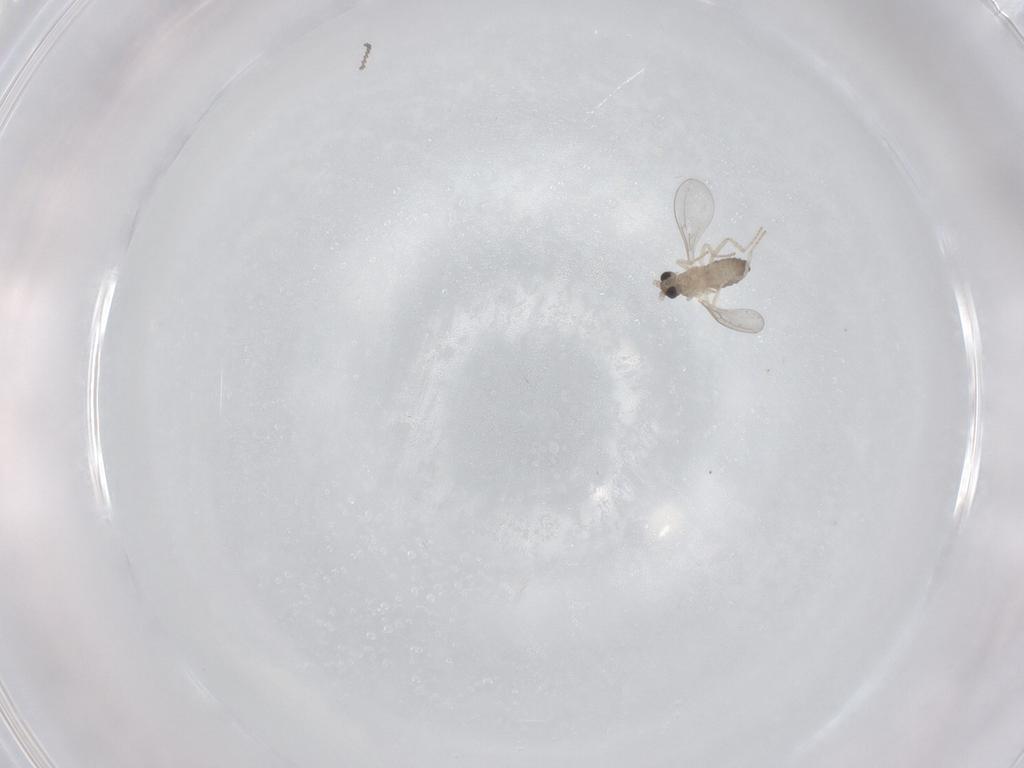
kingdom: Animalia
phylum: Arthropoda
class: Insecta
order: Diptera
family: Cecidomyiidae
